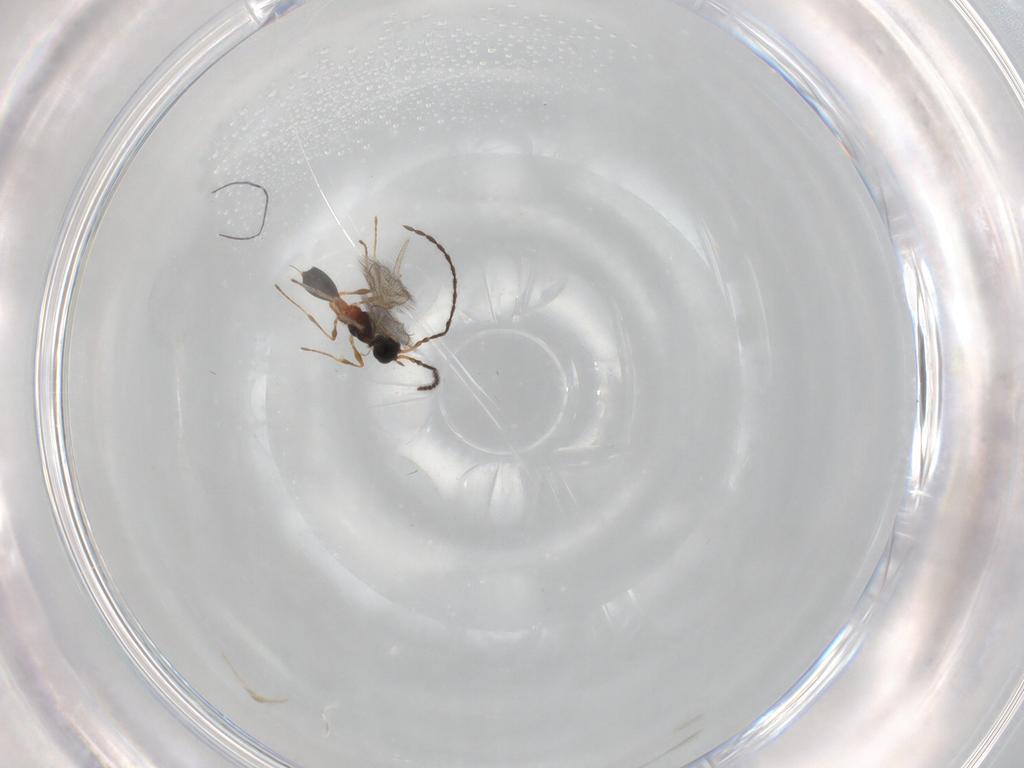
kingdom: Animalia
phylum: Arthropoda
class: Insecta
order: Hymenoptera
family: Diapriidae
